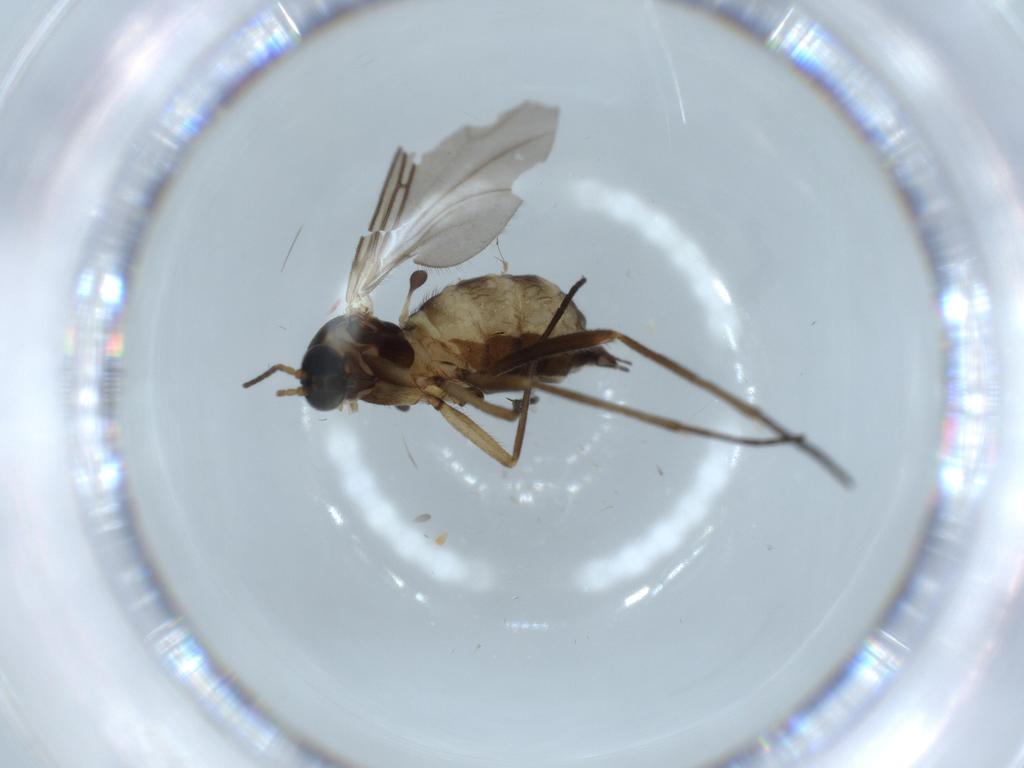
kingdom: Animalia
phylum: Arthropoda
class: Insecta
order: Diptera
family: Sciaridae
